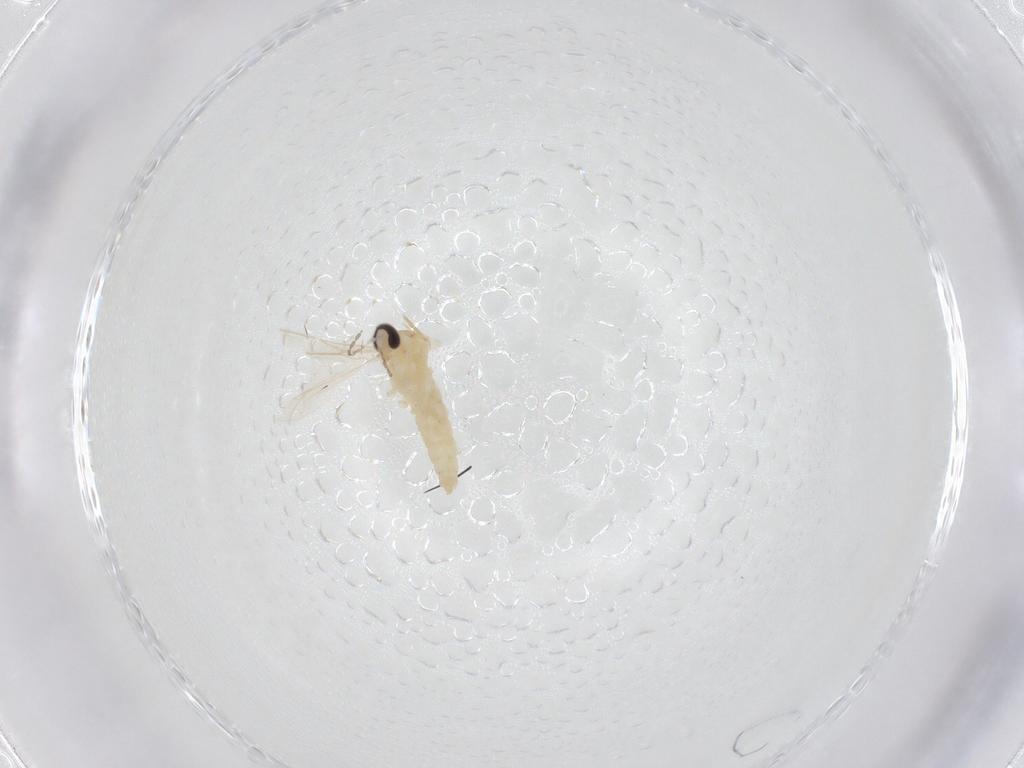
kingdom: Animalia
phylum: Arthropoda
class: Insecta
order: Diptera
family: Cecidomyiidae
